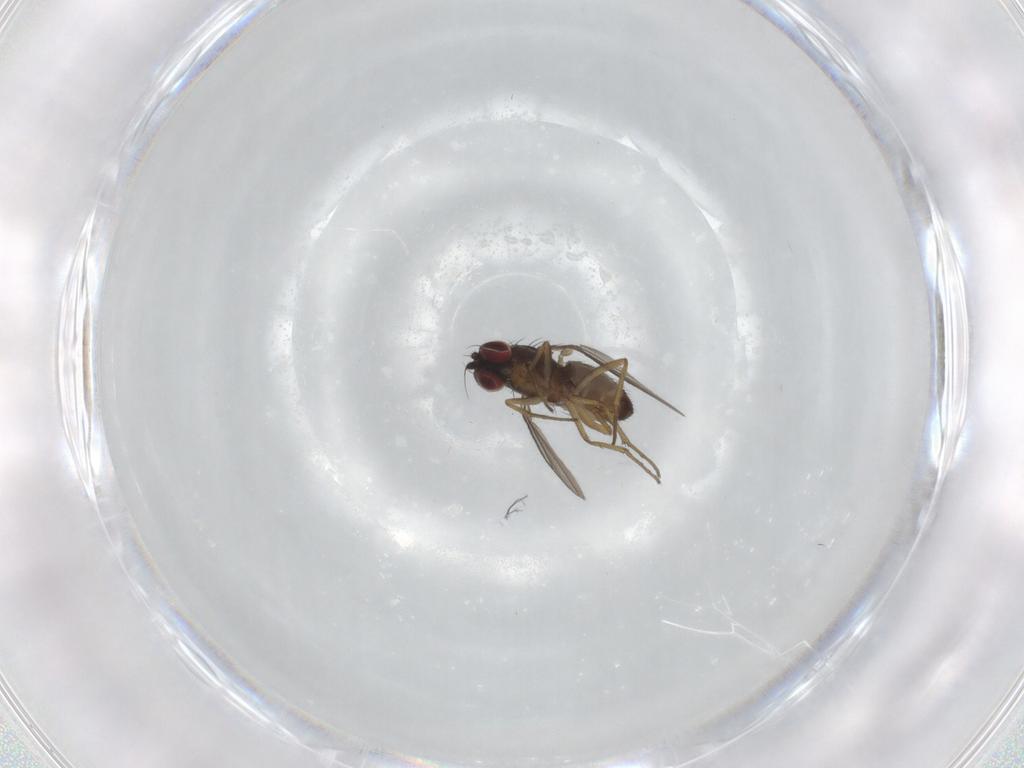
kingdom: Animalia
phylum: Arthropoda
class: Insecta
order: Diptera
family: Dolichopodidae
